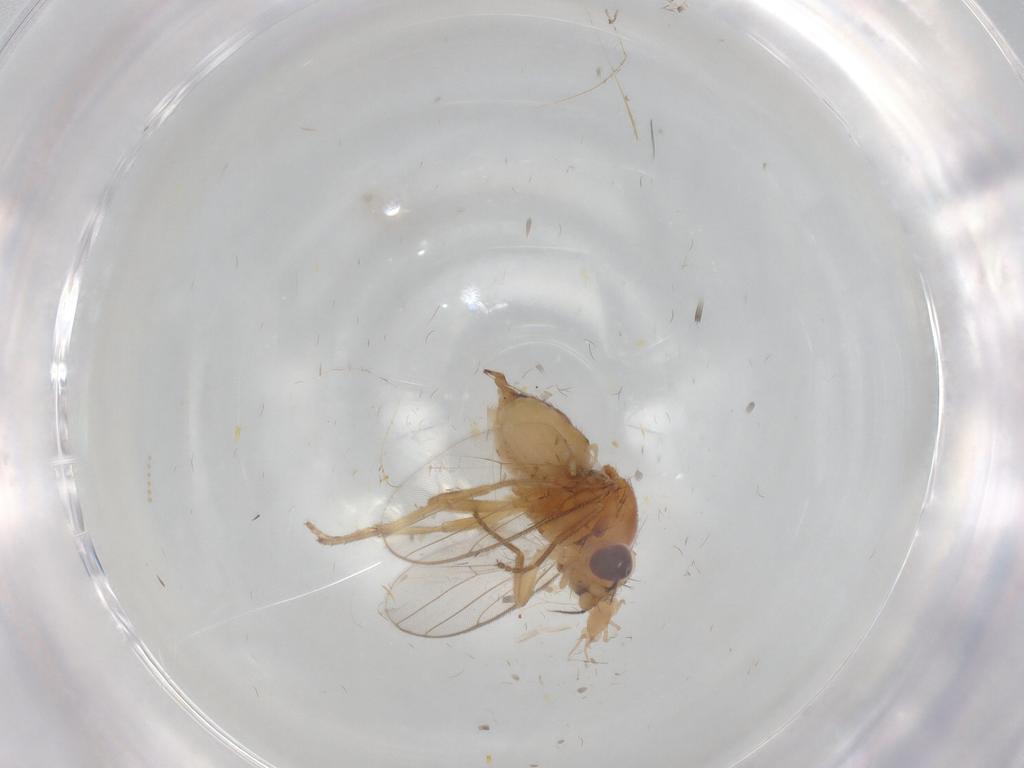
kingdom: Animalia
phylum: Arthropoda
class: Insecta
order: Diptera
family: Chloropidae
